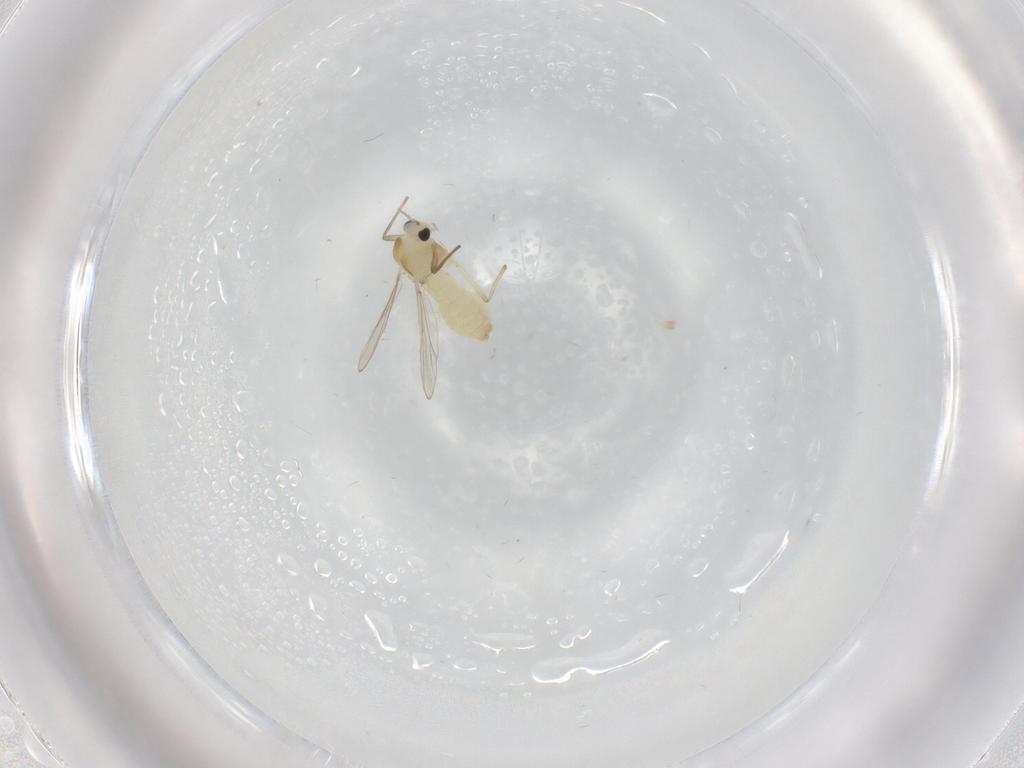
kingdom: Animalia
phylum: Arthropoda
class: Insecta
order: Diptera
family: Chironomidae
